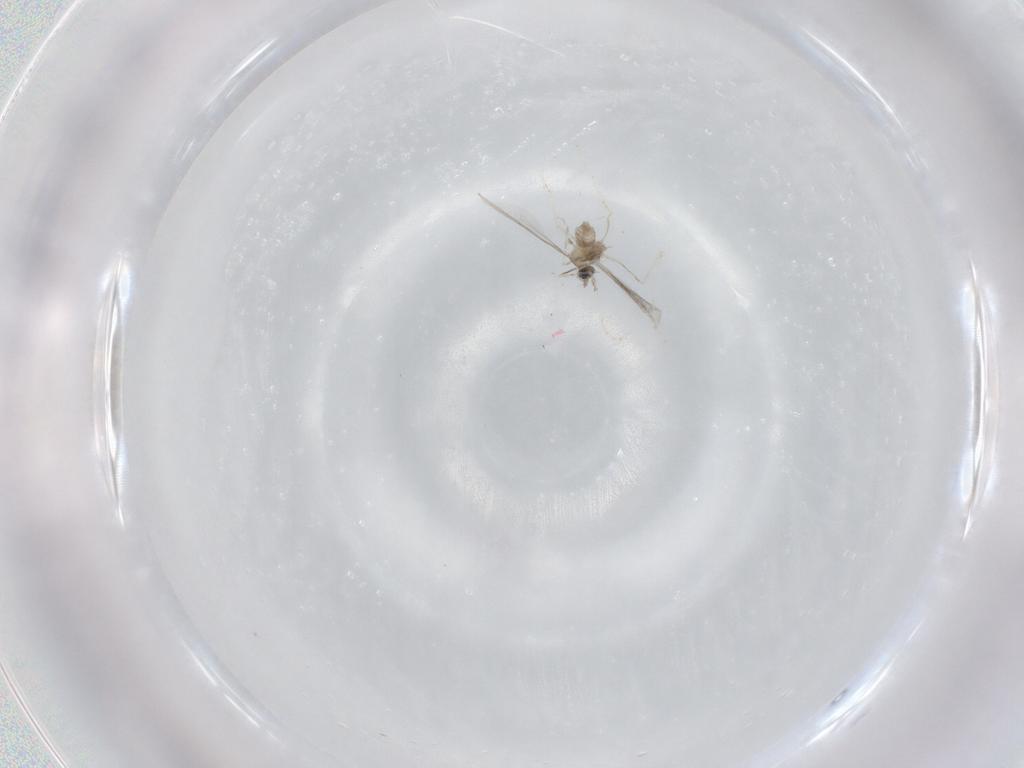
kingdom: Animalia
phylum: Arthropoda
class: Insecta
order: Diptera
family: Cecidomyiidae
